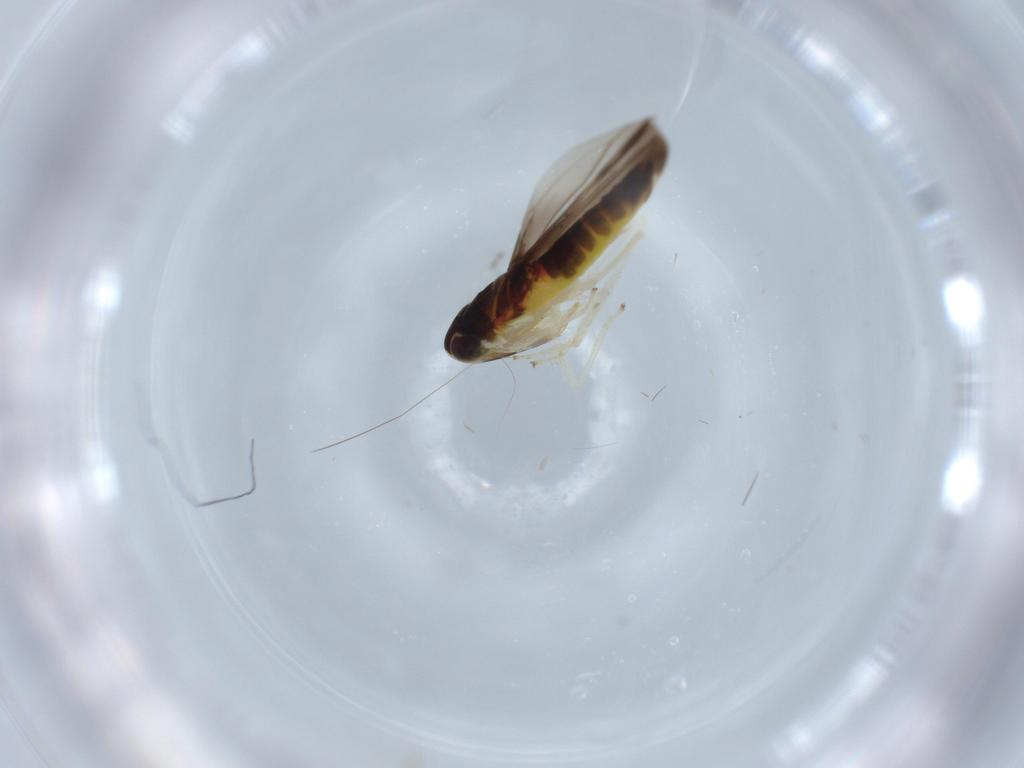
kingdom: Animalia
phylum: Arthropoda
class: Insecta
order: Hemiptera
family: Cicadellidae
